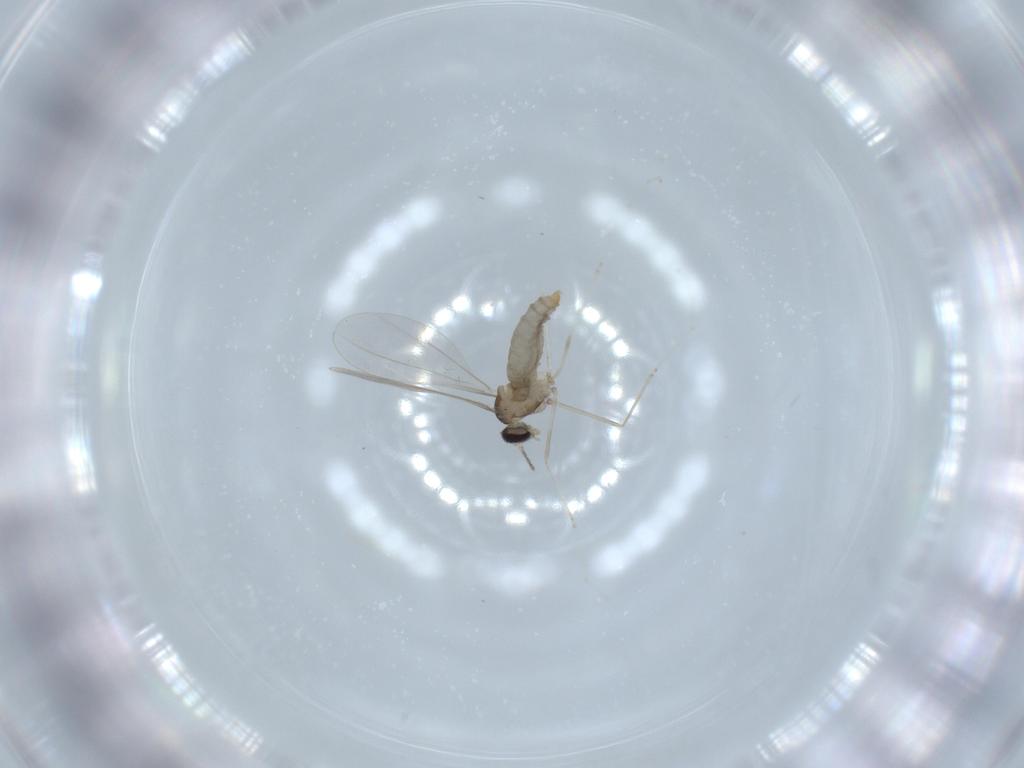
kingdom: Animalia
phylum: Arthropoda
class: Insecta
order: Diptera
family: Cecidomyiidae
